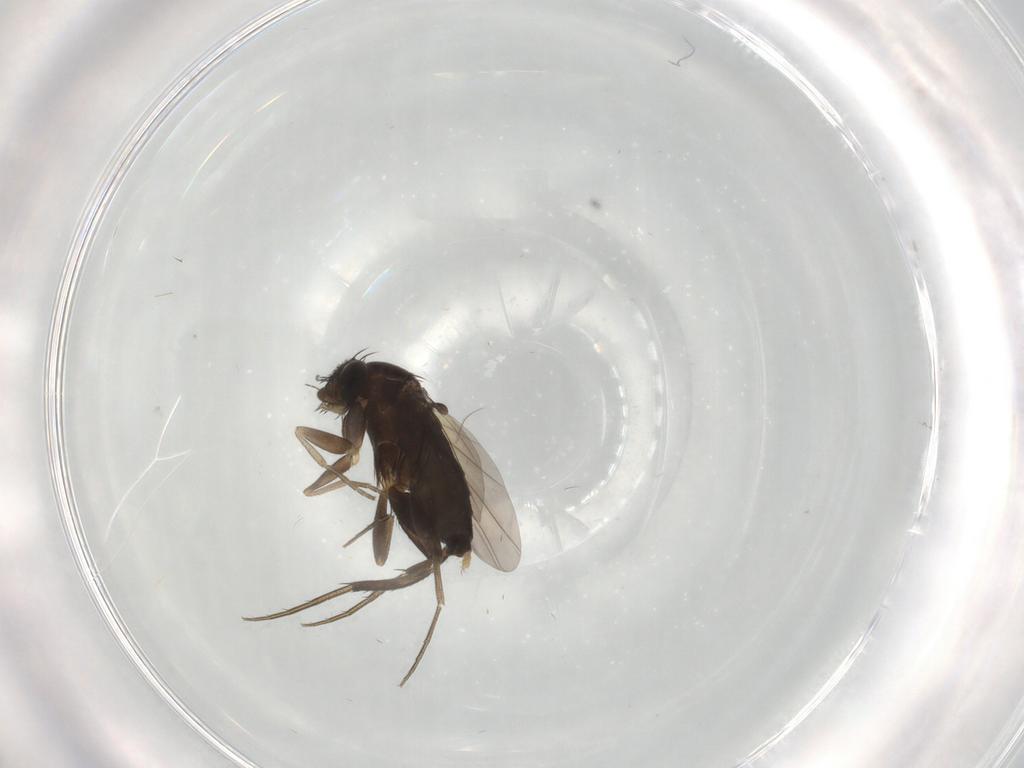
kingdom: Animalia
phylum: Arthropoda
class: Insecta
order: Diptera
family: Phoridae
